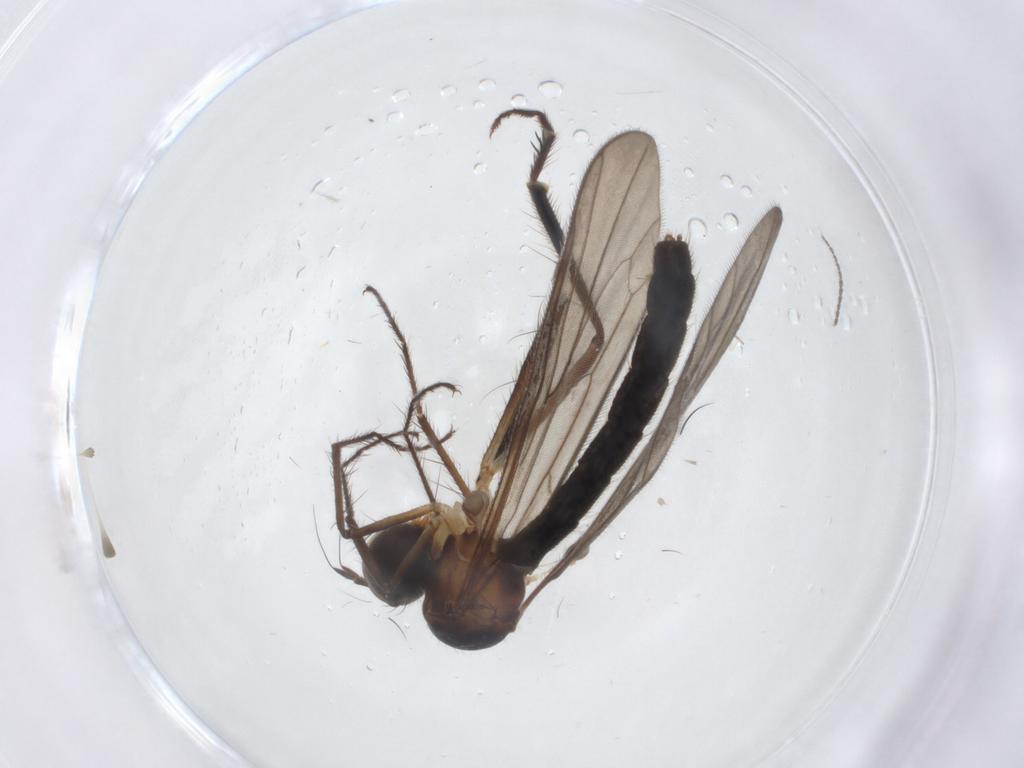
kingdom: Animalia
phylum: Arthropoda
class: Insecta
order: Diptera
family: Hybotidae
